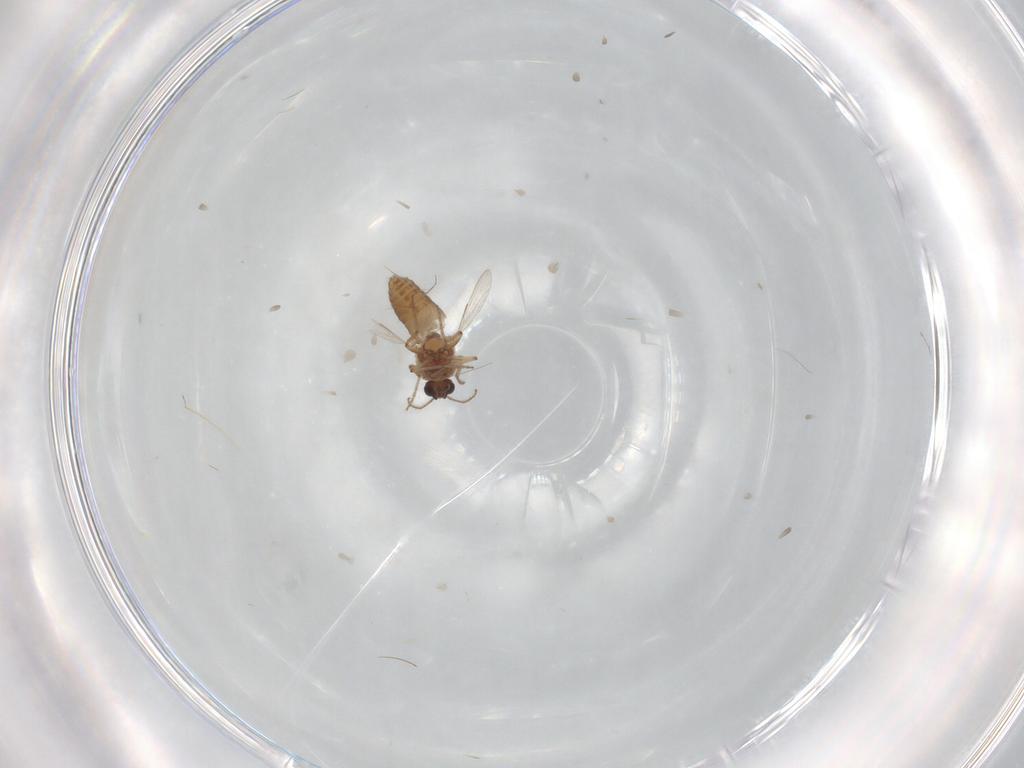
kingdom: Animalia
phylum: Arthropoda
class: Insecta
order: Diptera
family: Ceratopogonidae
